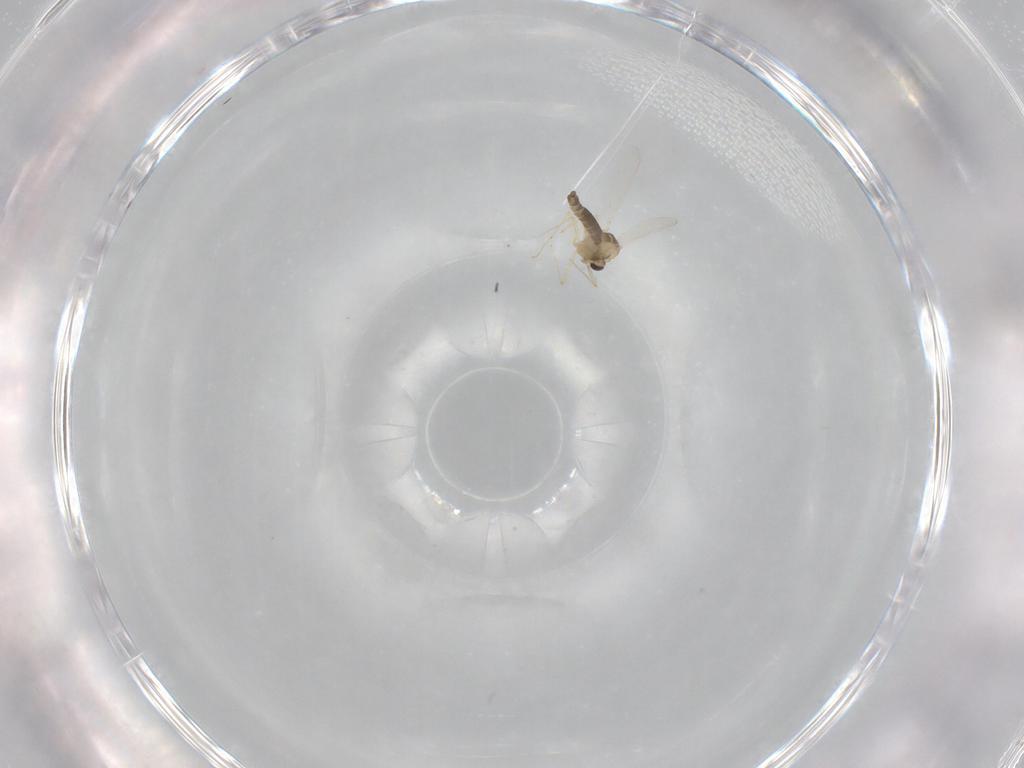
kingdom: Animalia
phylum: Arthropoda
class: Insecta
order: Diptera
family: Chironomidae
